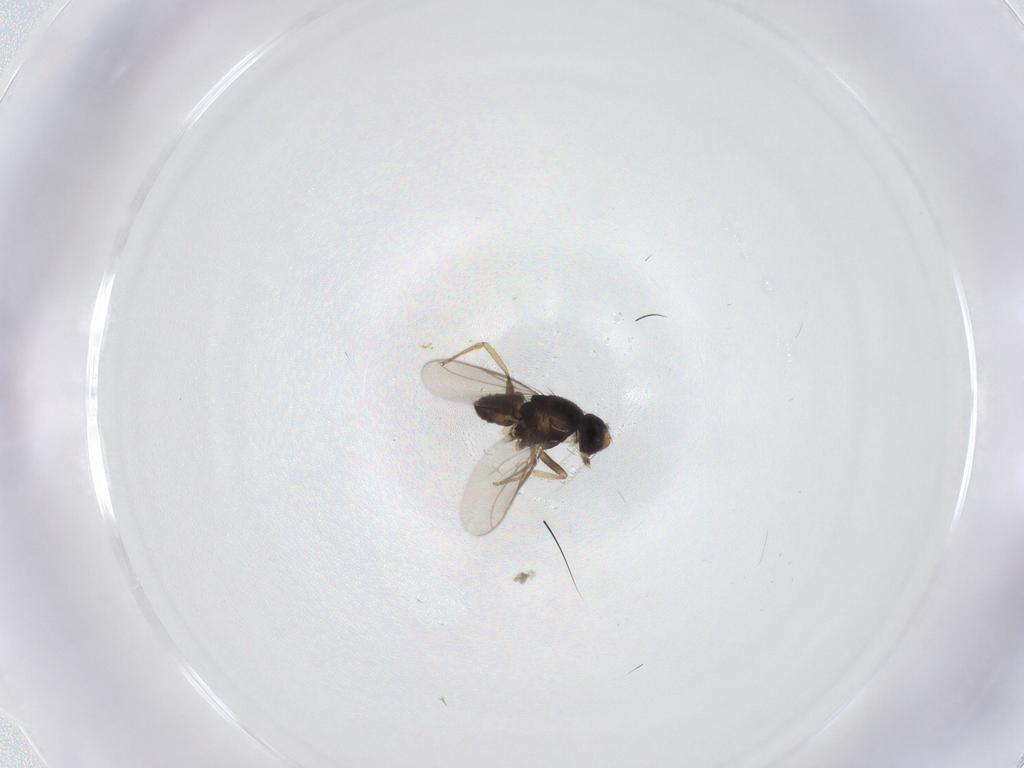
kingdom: Animalia
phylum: Arthropoda
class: Insecta
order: Diptera
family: Sphaeroceridae
